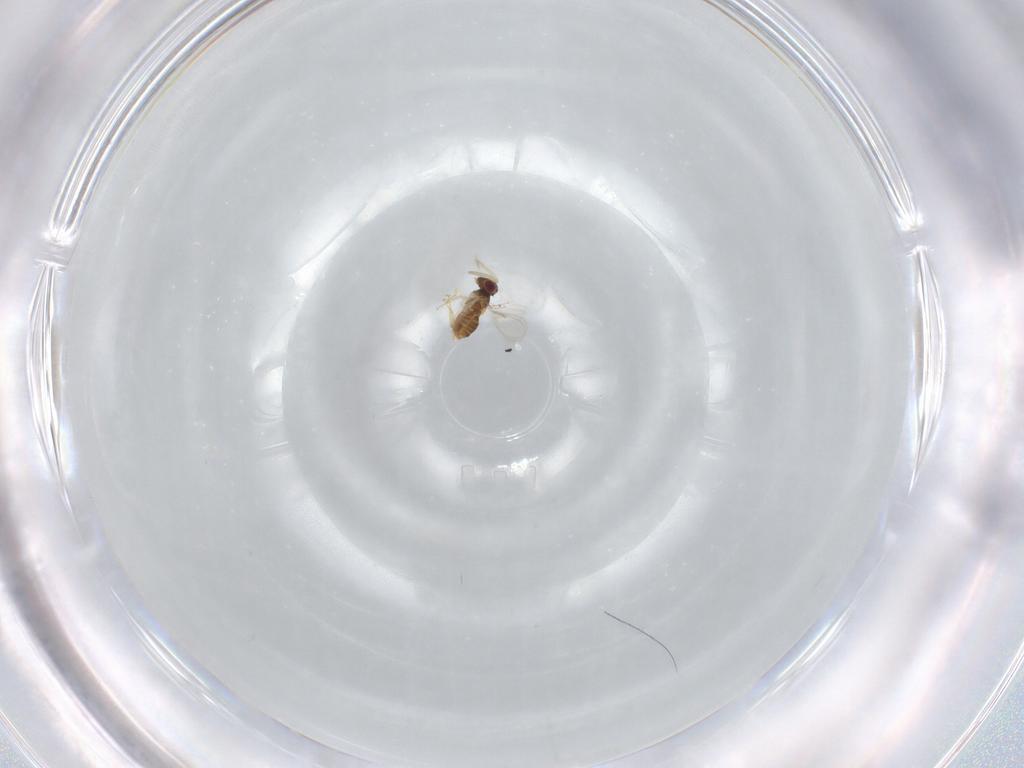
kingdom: Animalia
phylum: Arthropoda
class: Insecta
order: Hymenoptera
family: Aphelinidae
